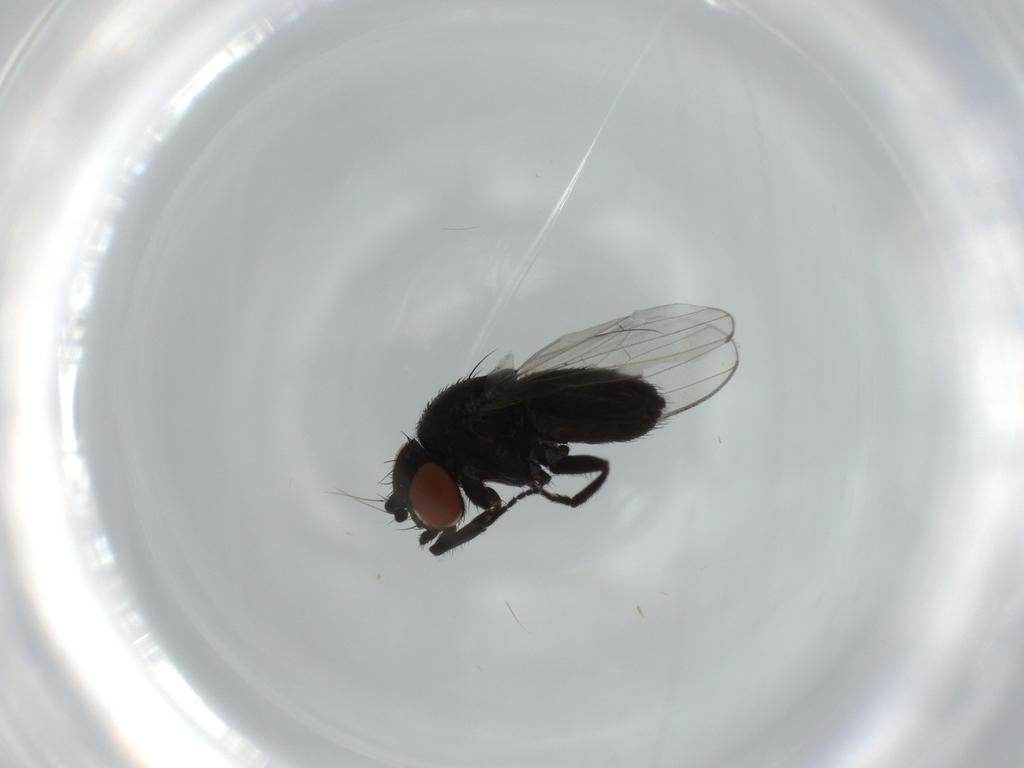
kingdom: Animalia
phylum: Arthropoda
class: Insecta
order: Diptera
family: Milichiidae
